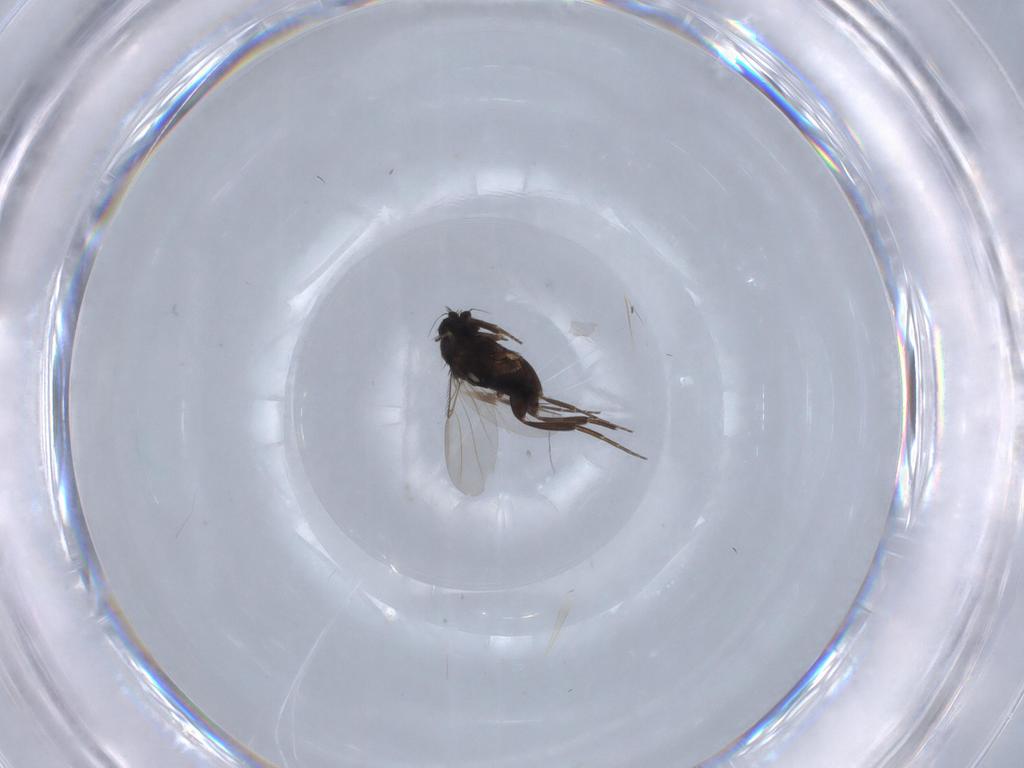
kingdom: Animalia
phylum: Arthropoda
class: Insecta
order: Diptera
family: Phoridae
